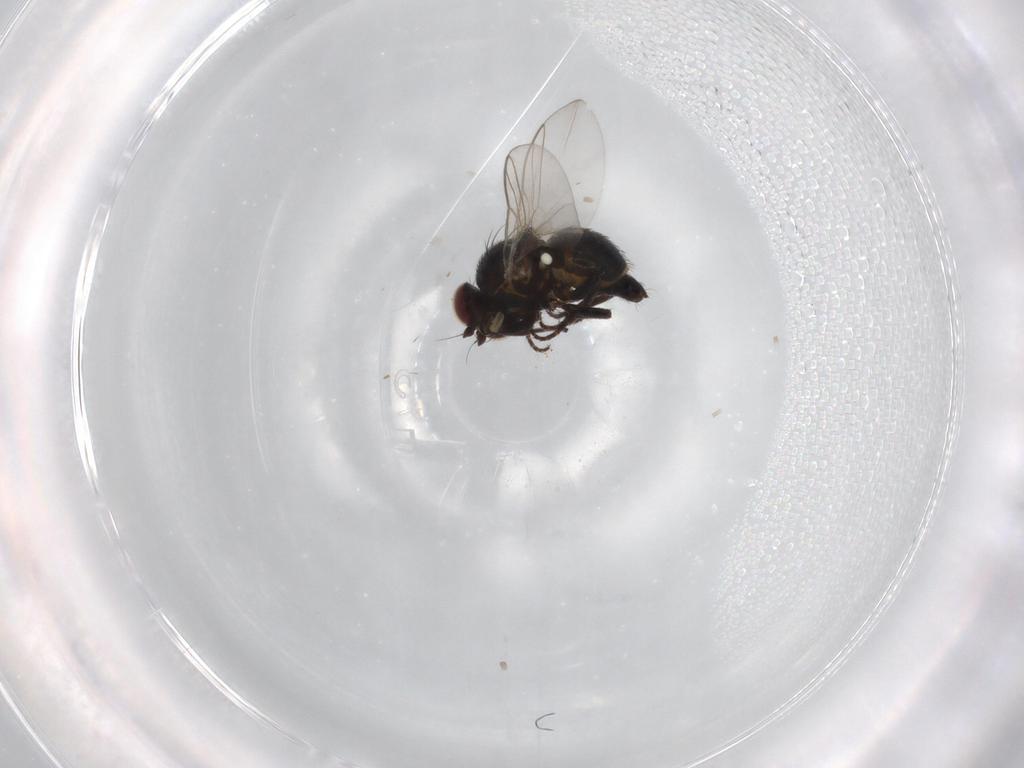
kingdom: Animalia
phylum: Arthropoda
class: Insecta
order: Diptera
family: Agromyzidae
